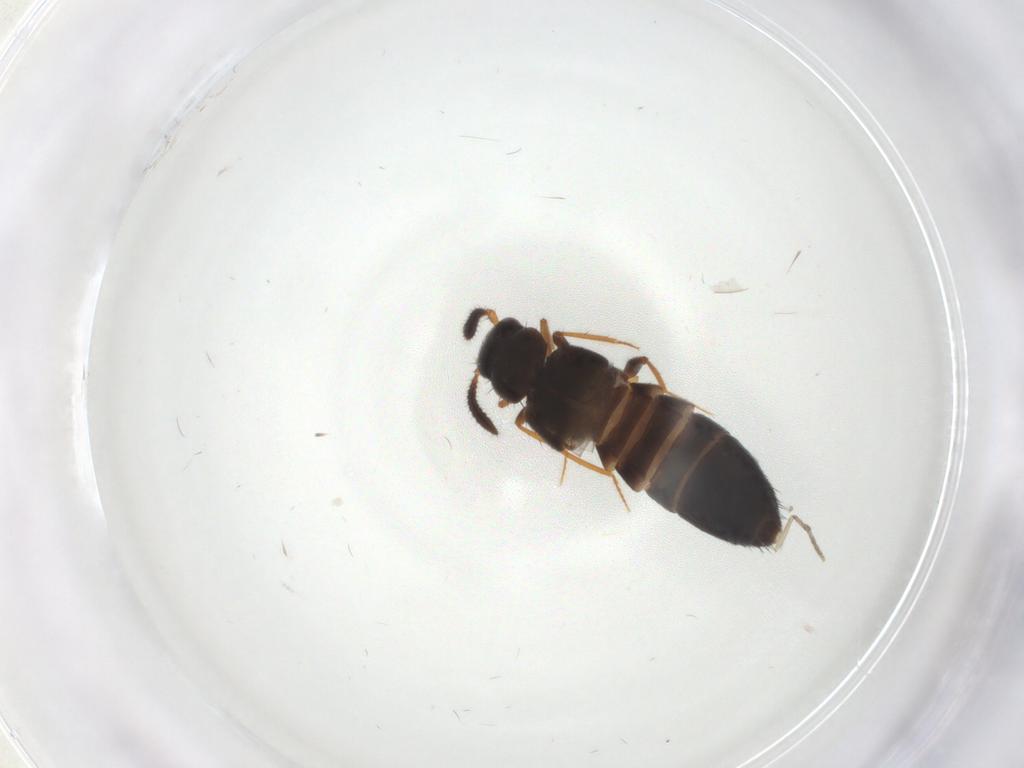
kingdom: Animalia
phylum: Arthropoda
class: Insecta
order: Coleoptera
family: Staphylinidae
